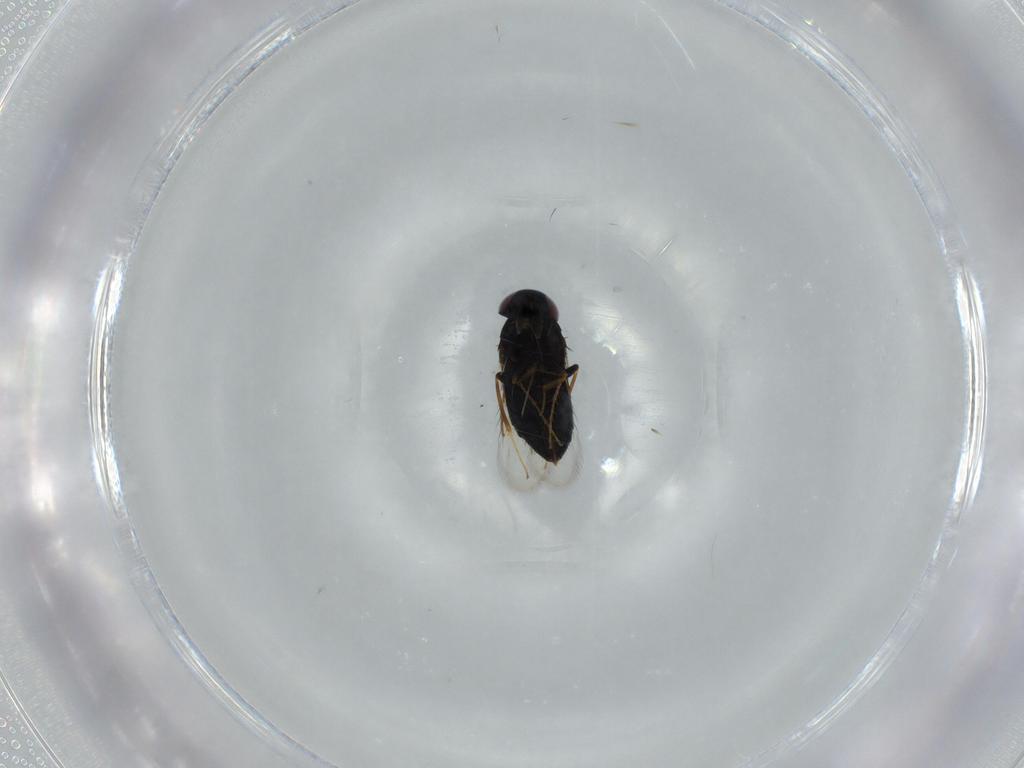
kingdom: Animalia
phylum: Arthropoda
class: Insecta
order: Hymenoptera
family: Signiphoridae
